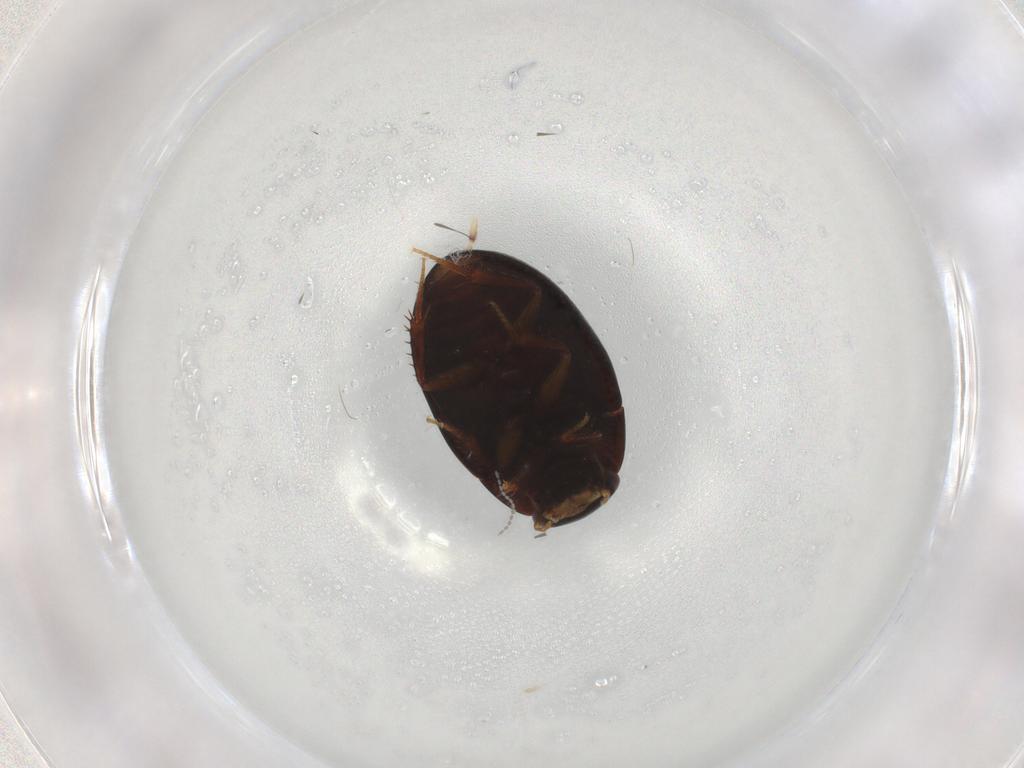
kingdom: Animalia
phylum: Arthropoda
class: Insecta
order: Coleoptera
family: Hydrophilidae
